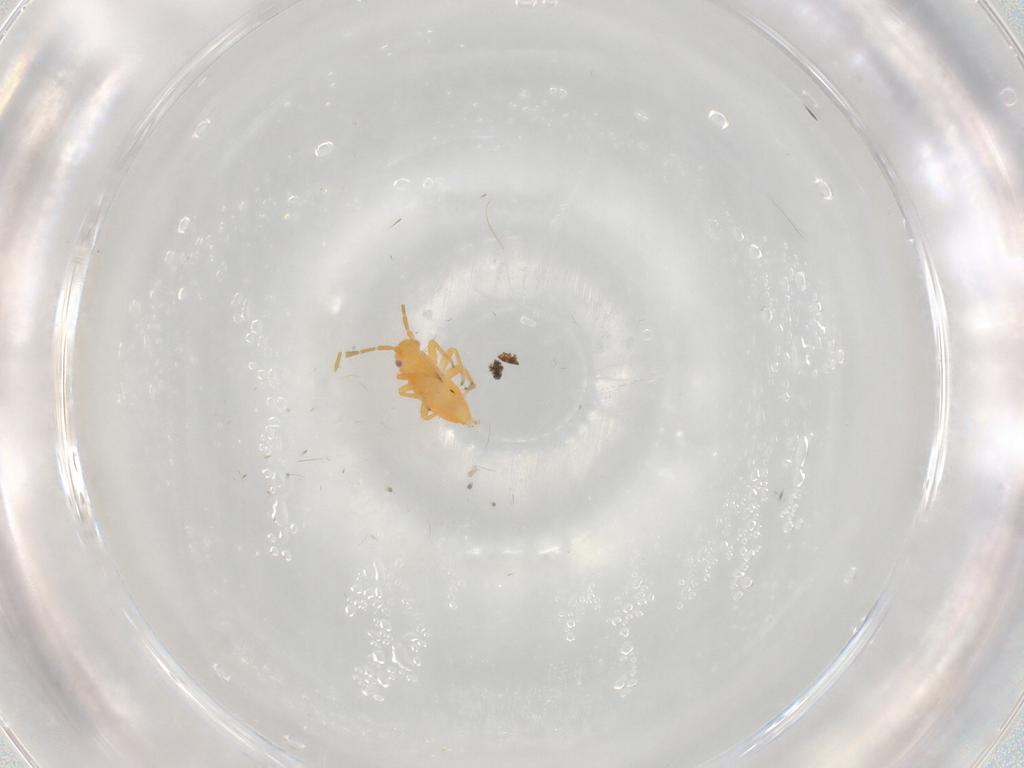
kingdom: Animalia
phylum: Arthropoda
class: Insecta
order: Hemiptera
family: Miridae
